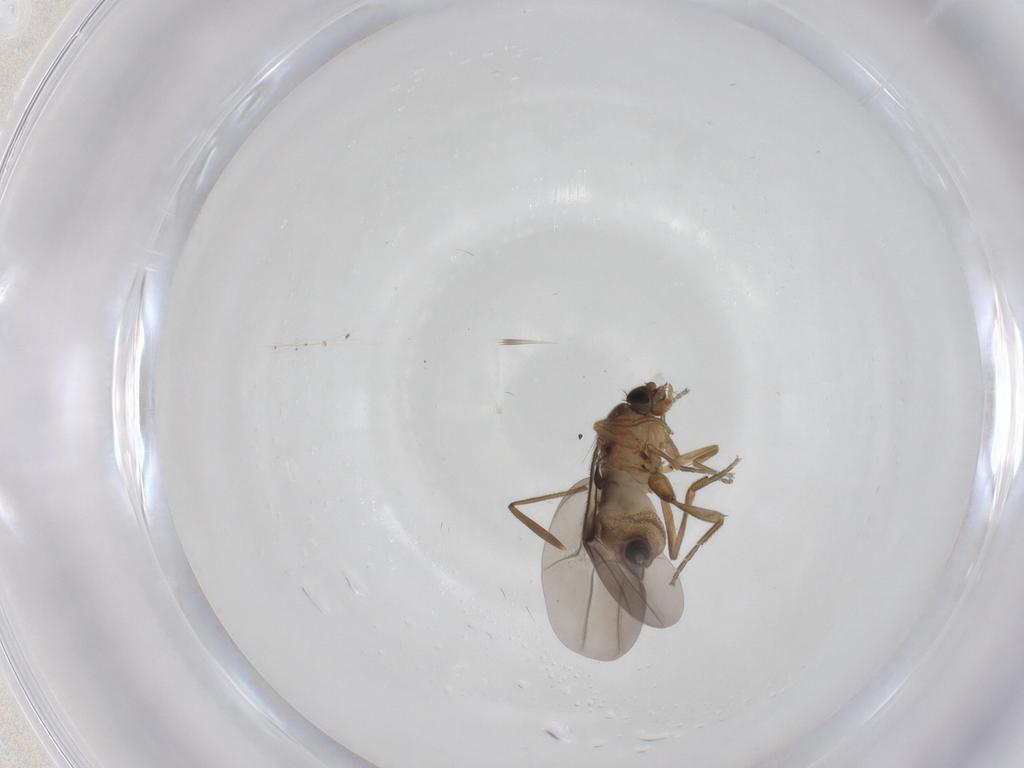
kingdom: Animalia
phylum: Arthropoda
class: Insecta
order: Diptera
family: Phoridae
